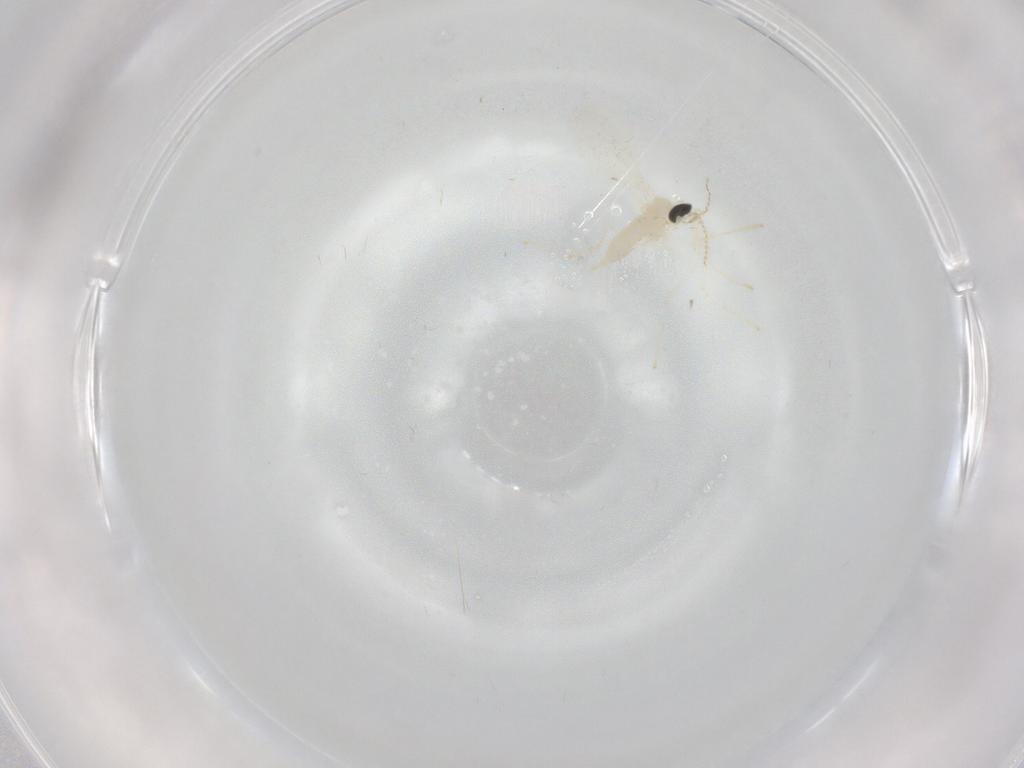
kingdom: Animalia
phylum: Arthropoda
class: Insecta
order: Diptera
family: Cecidomyiidae
